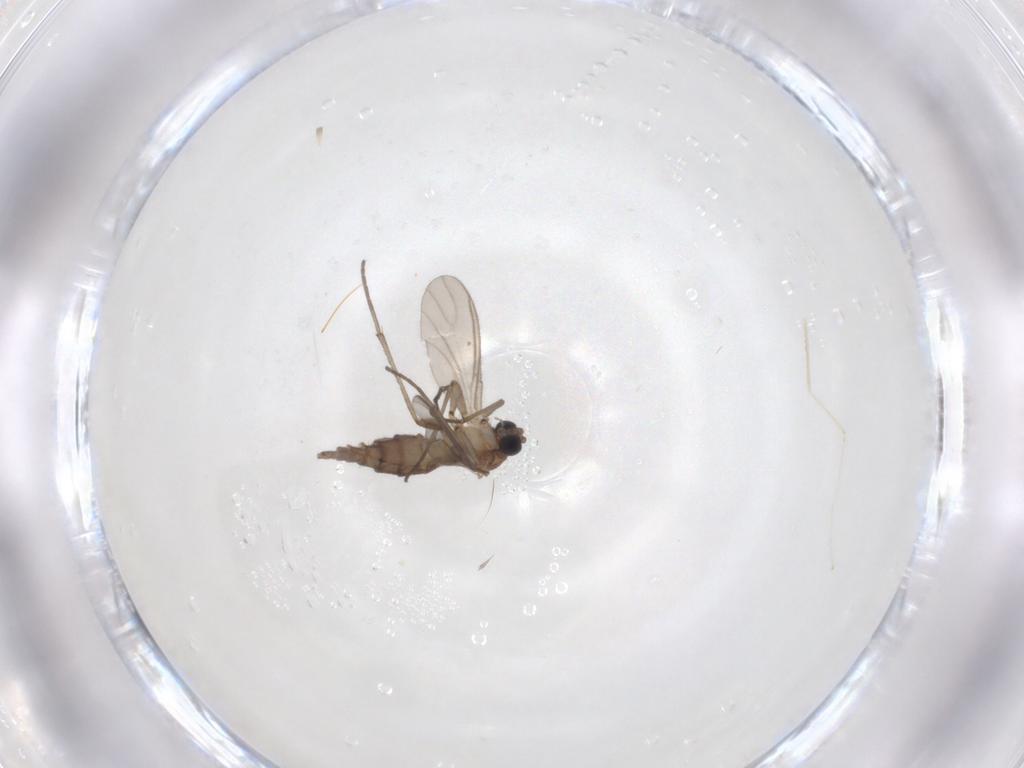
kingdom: Animalia
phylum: Arthropoda
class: Insecta
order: Diptera
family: Sciaridae
